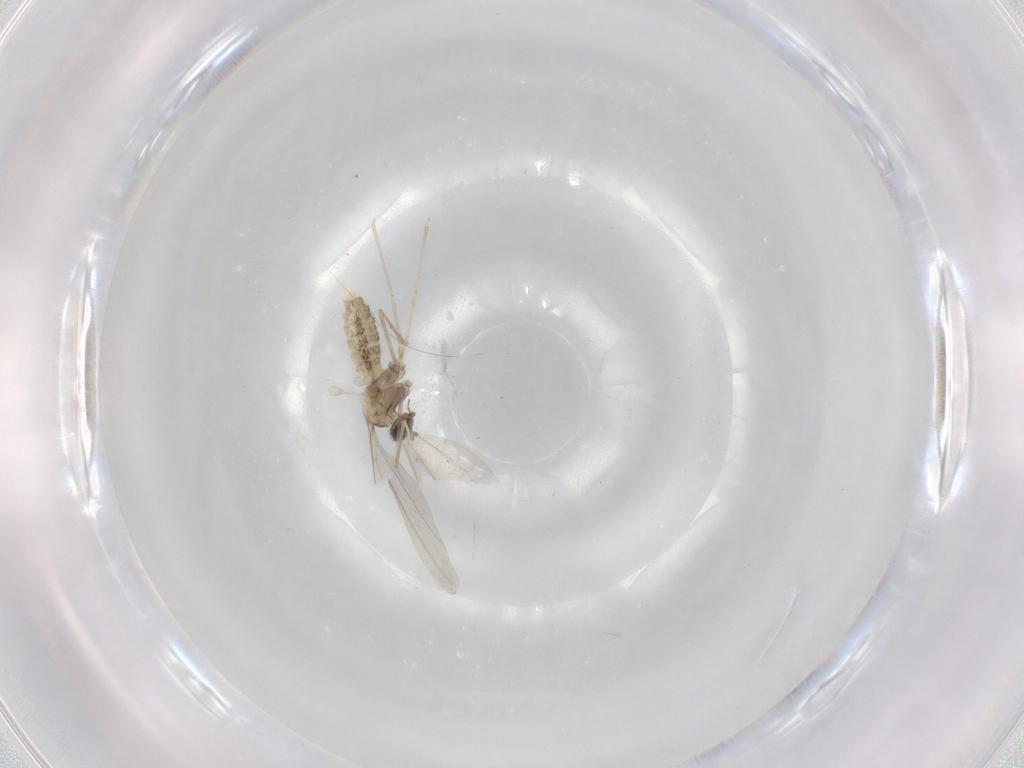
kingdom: Animalia
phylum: Arthropoda
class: Insecta
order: Diptera
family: Cecidomyiidae
